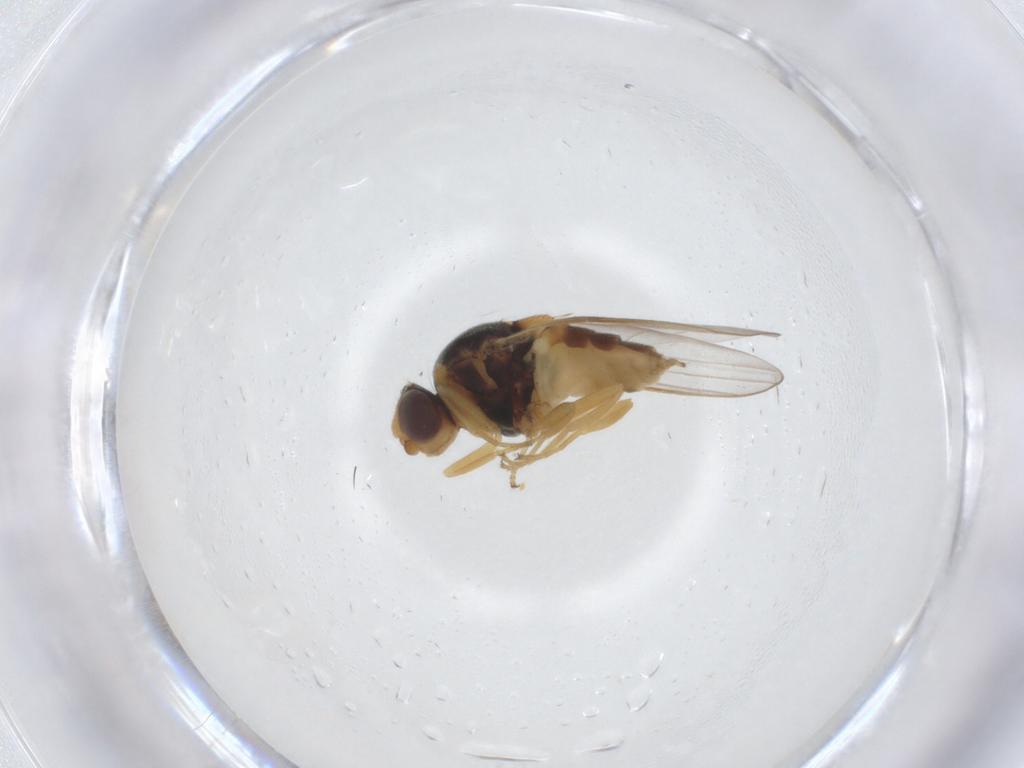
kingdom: Animalia
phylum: Arthropoda
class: Insecta
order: Diptera
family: Chloropidae
